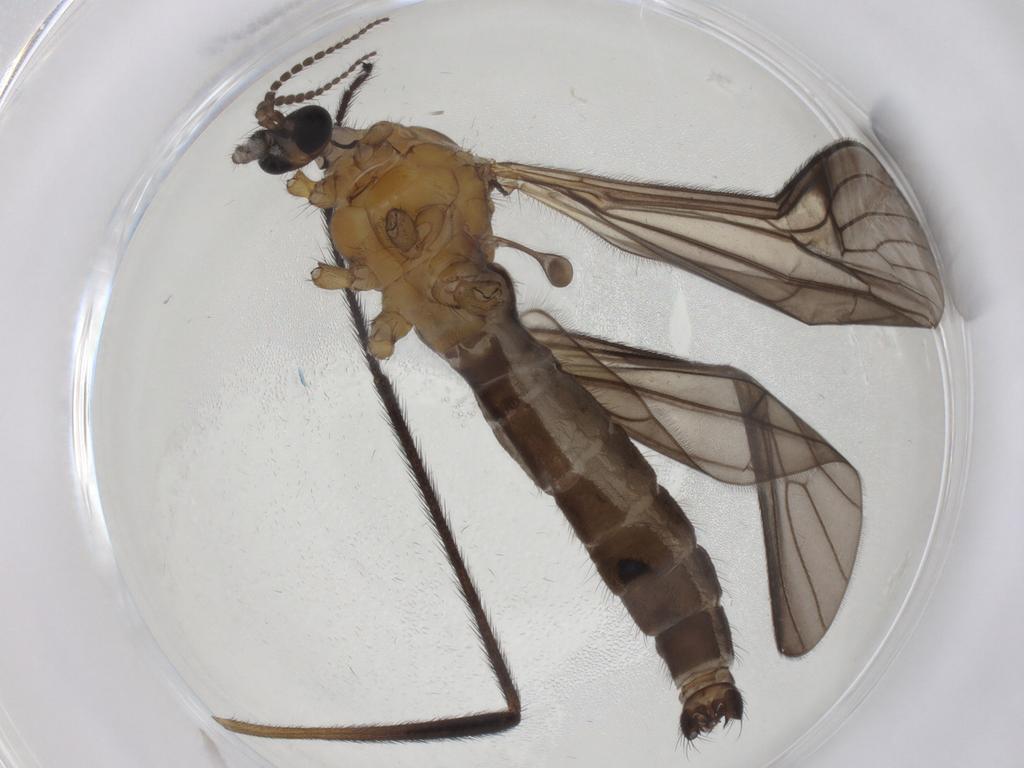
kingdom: Animalia
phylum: Arthropoda
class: Insecta
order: Diptera
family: Limoniidae
